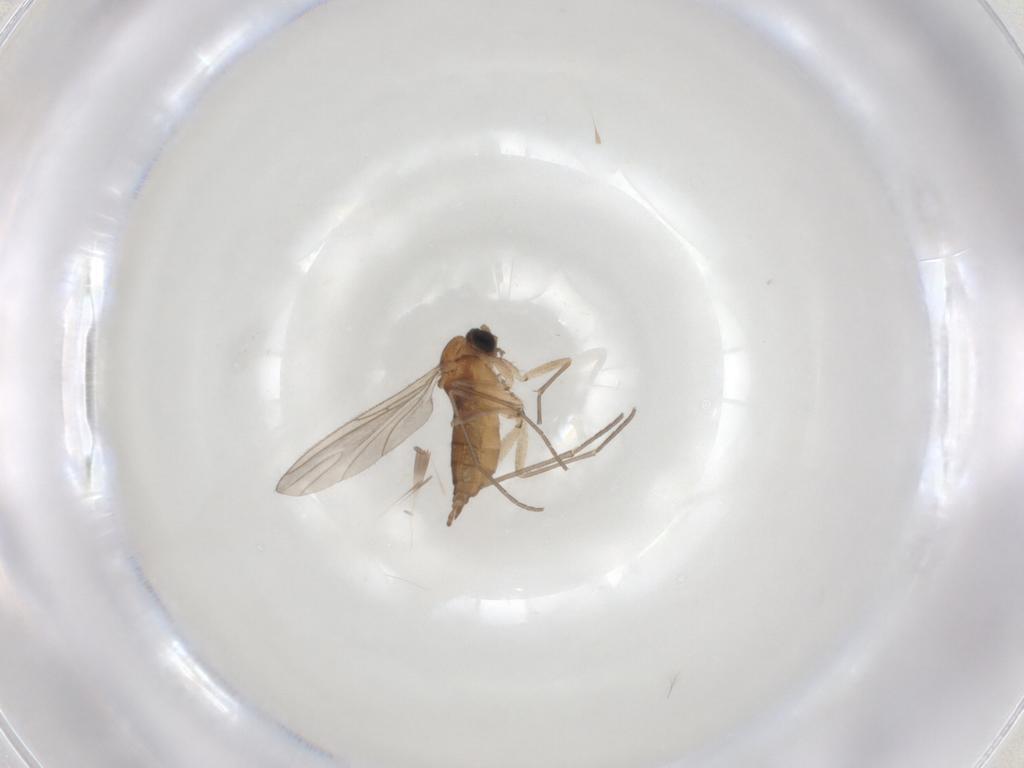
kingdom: Animalia
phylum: Arthropoda
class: Insecta
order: Diptera
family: Sciaridae
